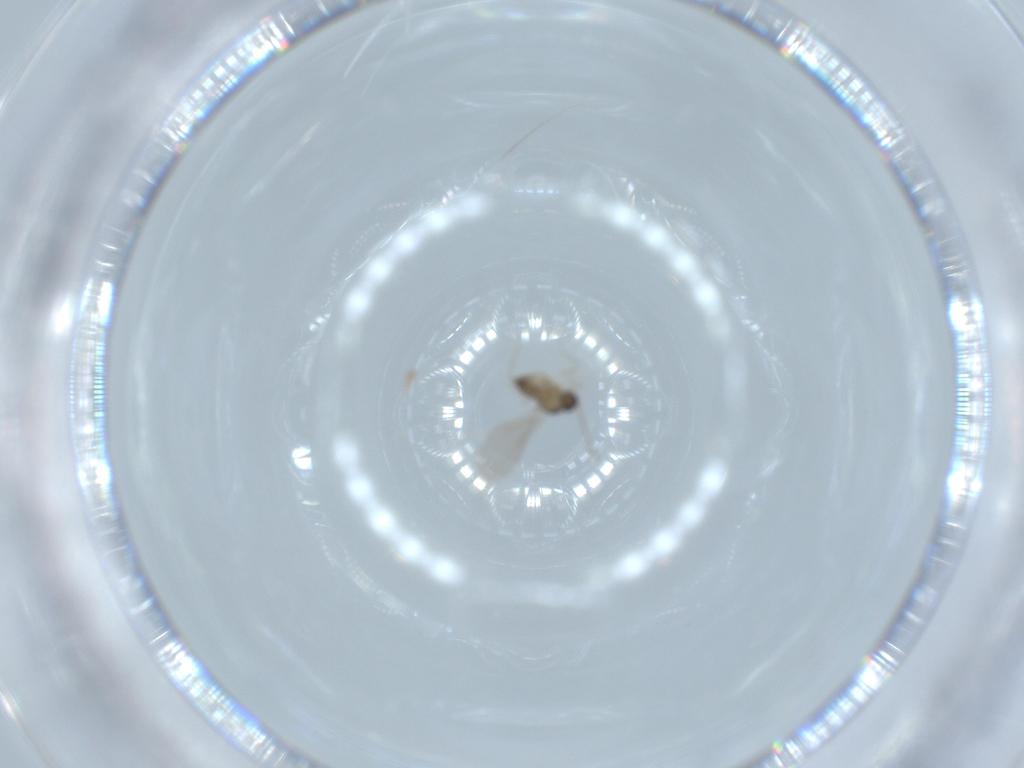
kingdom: Animalia
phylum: Arthropoda
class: Insecta
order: Diptera
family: Cecidomyiidae
